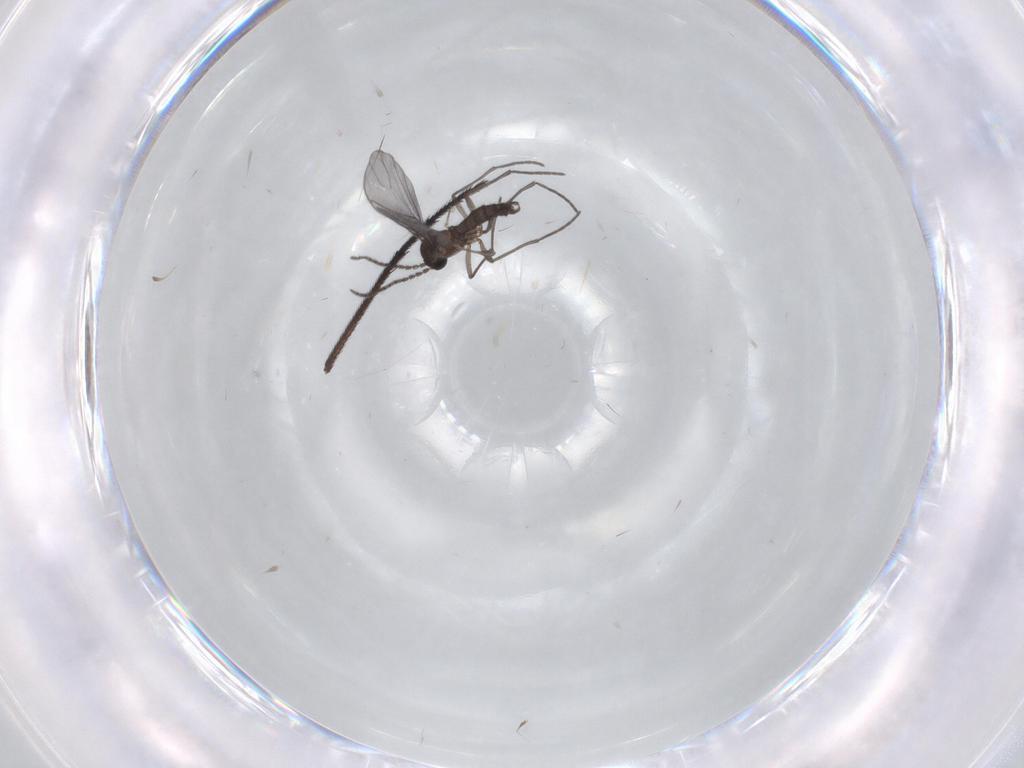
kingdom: Animalia
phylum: Arthropoda
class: Insecta
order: Diptera
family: Sciaridae
